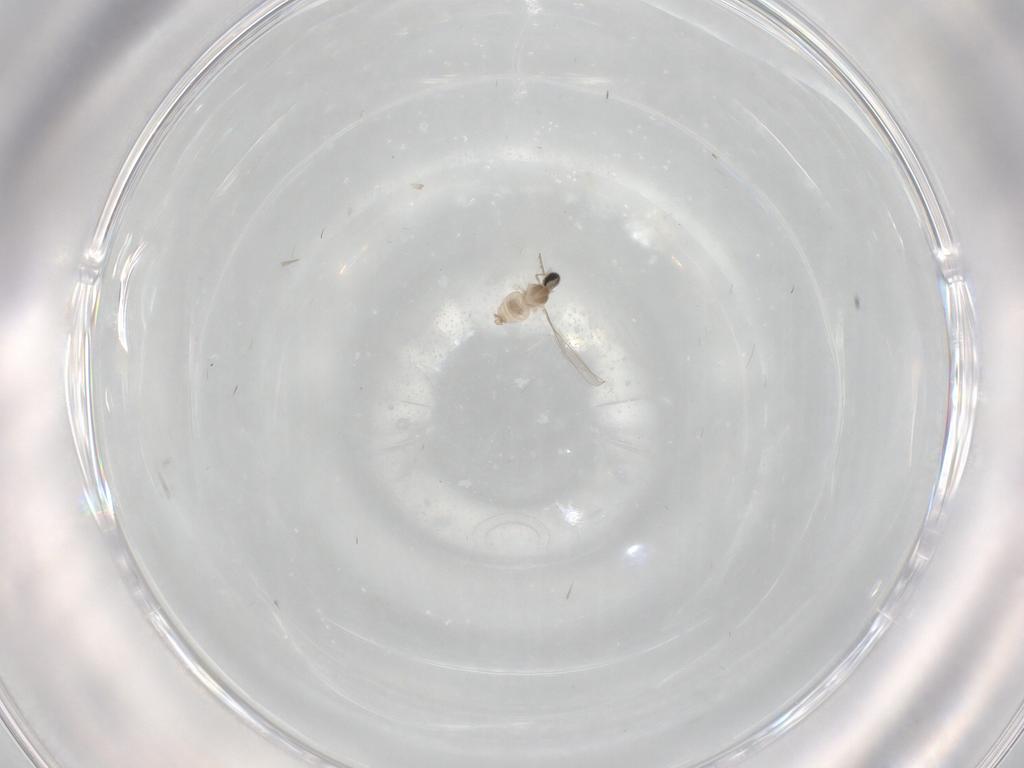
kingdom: Animalia
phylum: Arthropoda
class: Insecta
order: Diptera
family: Cecidomyiidae
